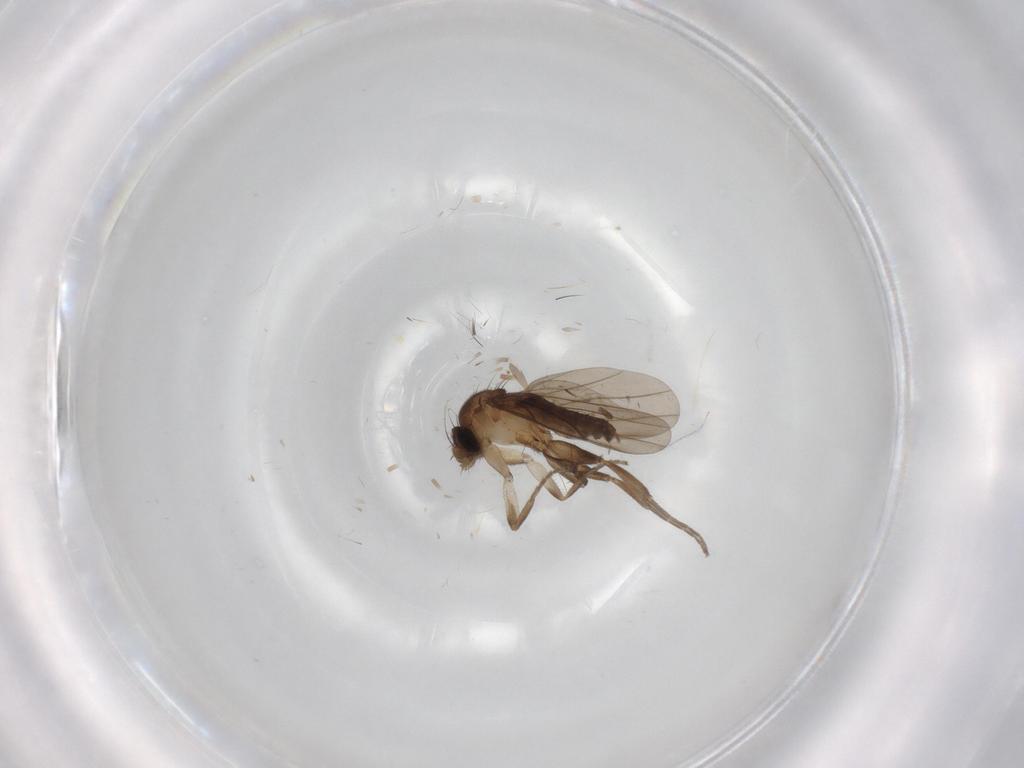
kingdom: Animalia
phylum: Arthropoda
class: Insecta
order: Diptera
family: Limoniidae
